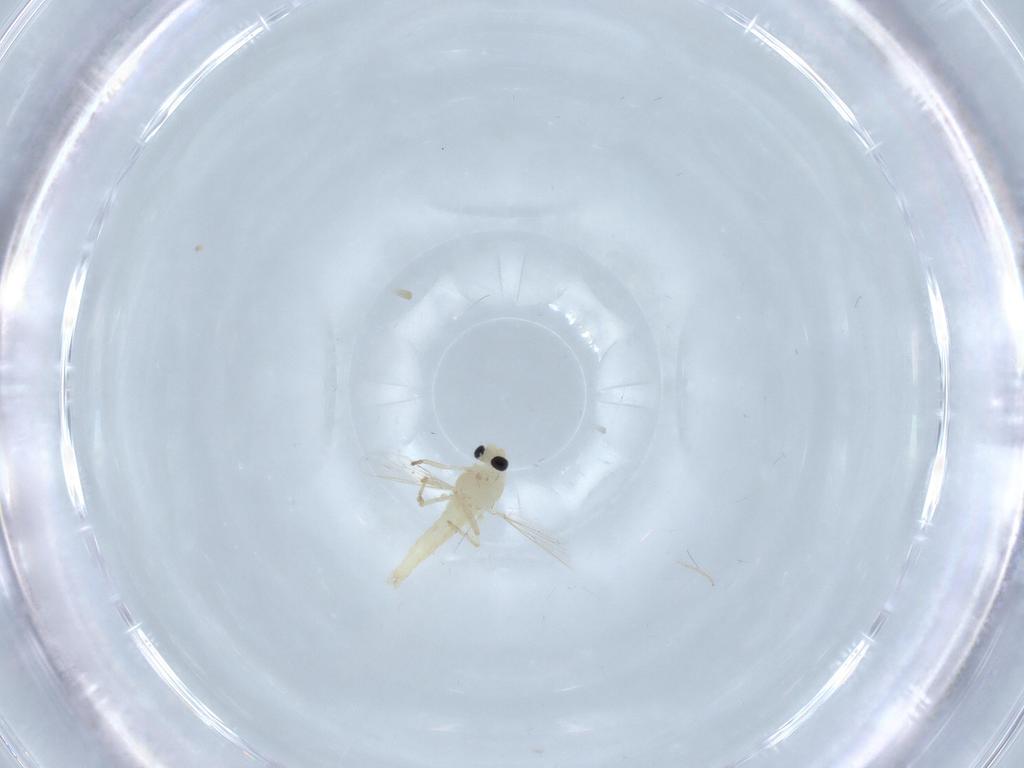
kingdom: Animalia
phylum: Arthropoda
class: Insecta
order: Diptera
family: Chironomidae
